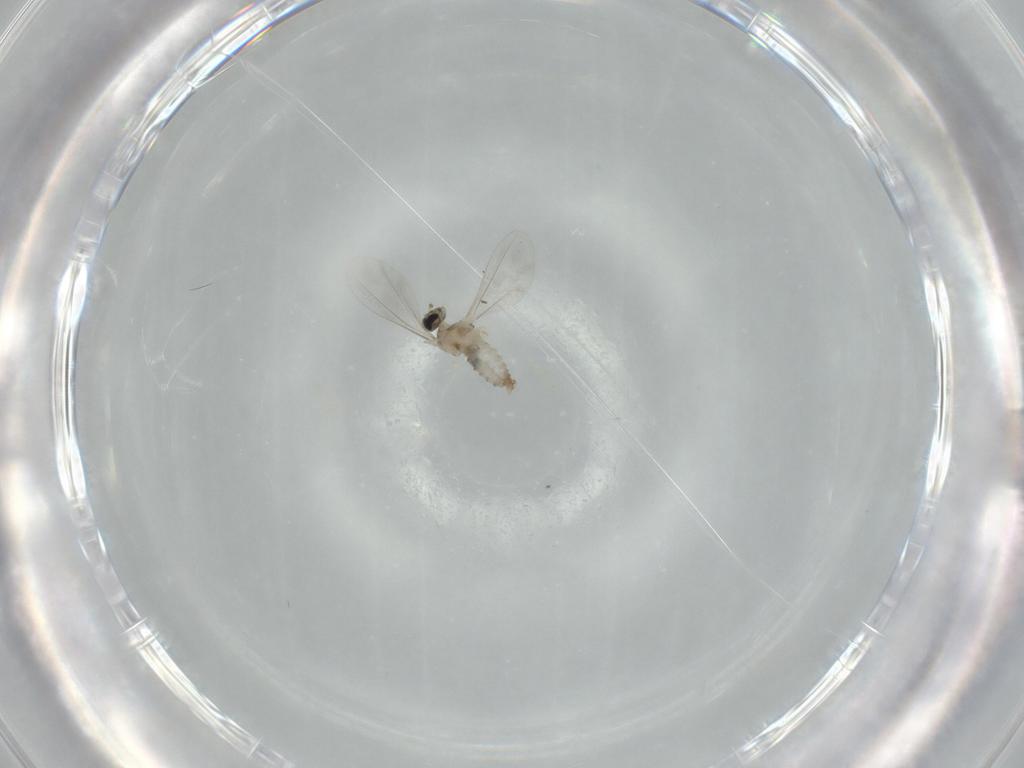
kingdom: Animalia
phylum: Arthropoda
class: Insecta
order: Diptera
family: Cecidomyiidae
